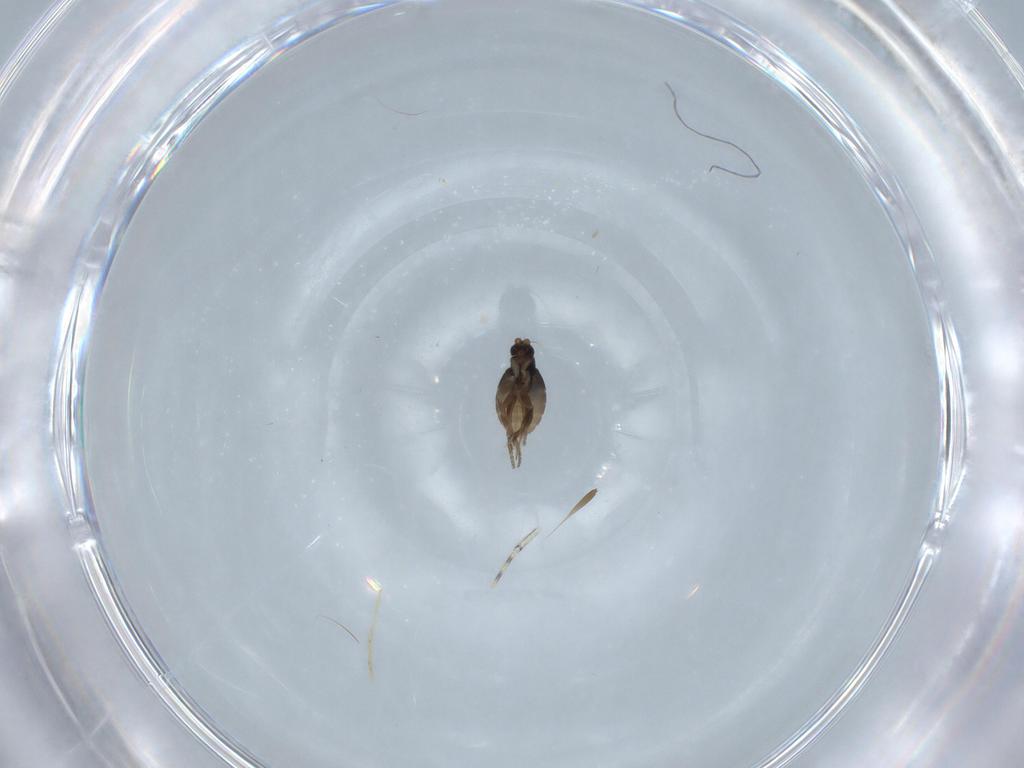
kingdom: Animalia
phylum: Arthropoda
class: Insecta
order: Diptera
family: Chironomidae
